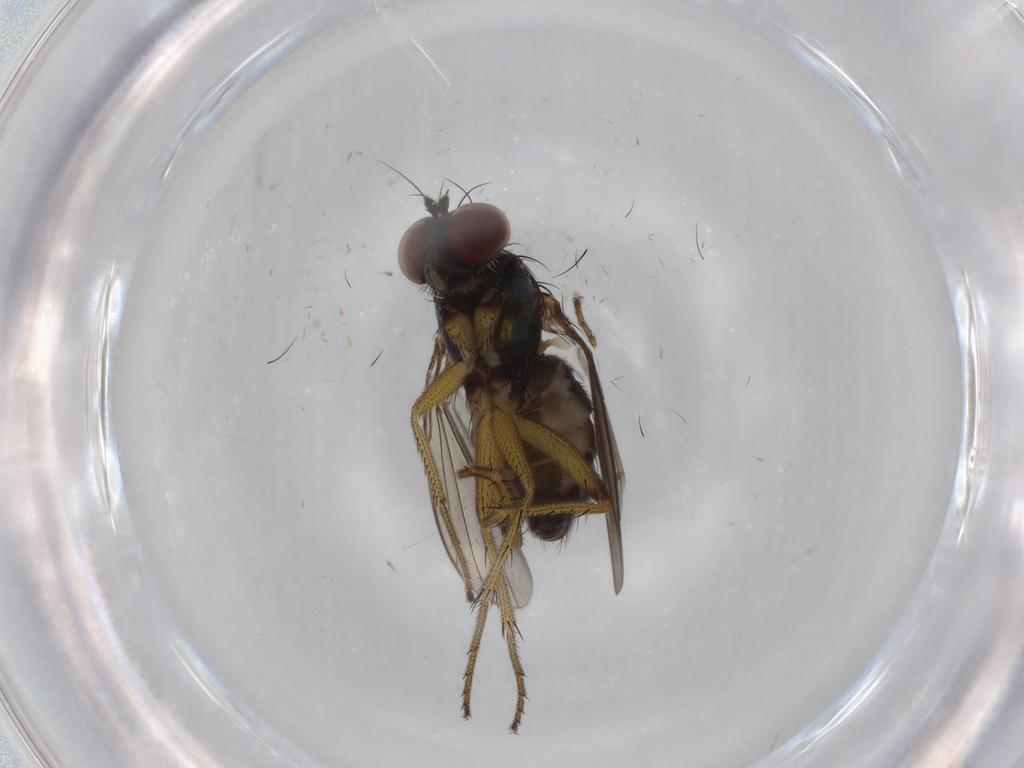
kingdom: Animalia
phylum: Arthropoda
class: Insecta
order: Diptera
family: Dolichopodidae
